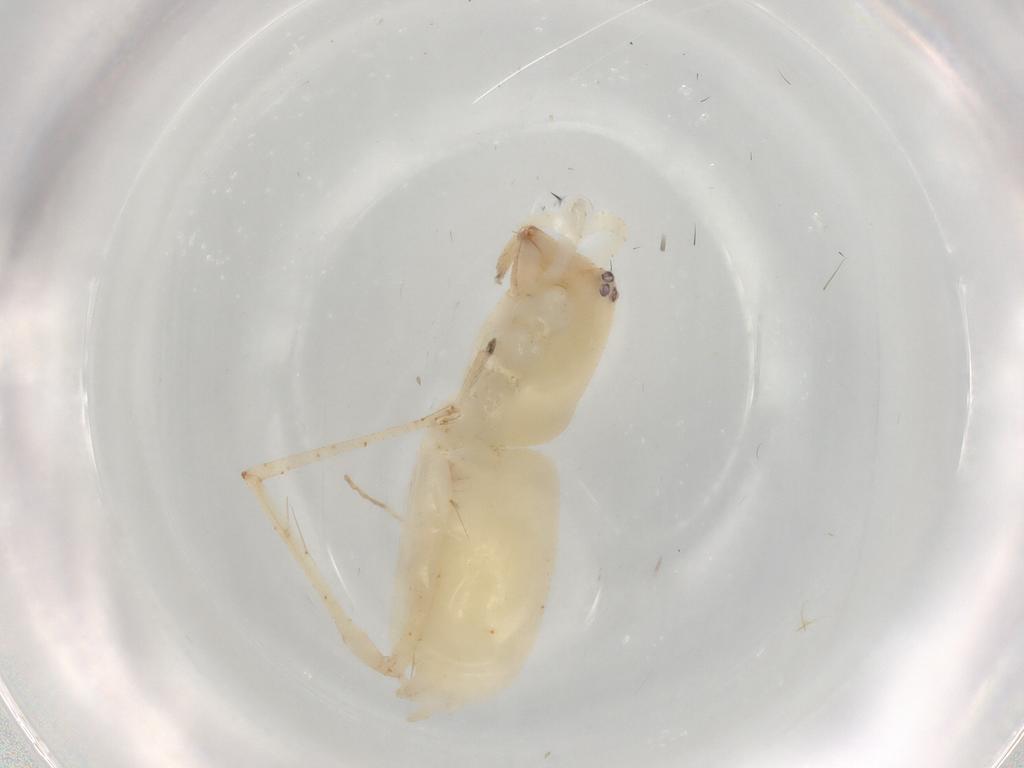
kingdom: Animalia
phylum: Arthropoda
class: Arachnida
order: Araneae
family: Anyphaenidae
